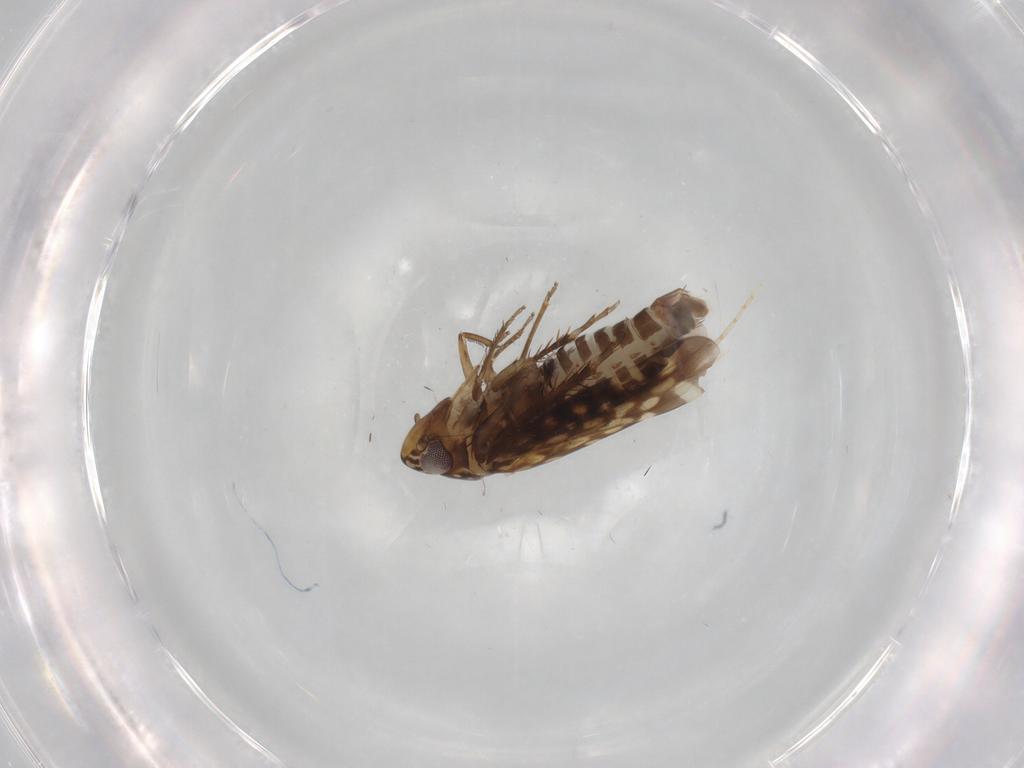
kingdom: Animalia
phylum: Arthropoda
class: Insecta
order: Hemiptera
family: Cicadellidae
